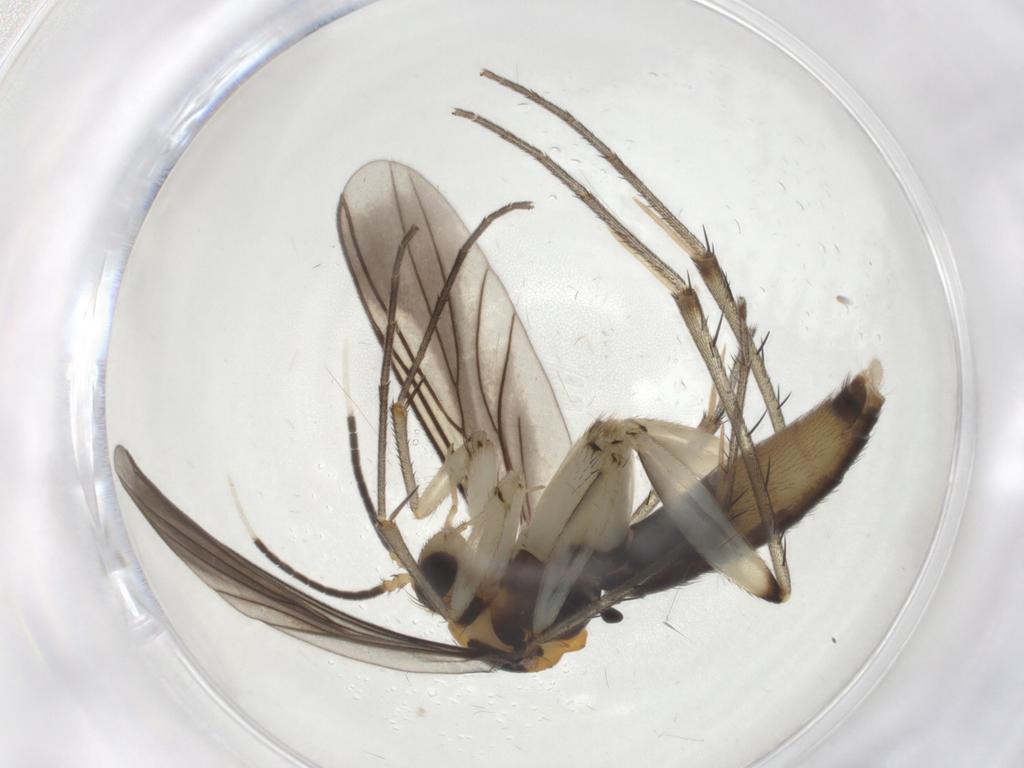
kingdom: Animalia
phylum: Arthropoda
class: Insecta
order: Diptera
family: Mycetophilidae
